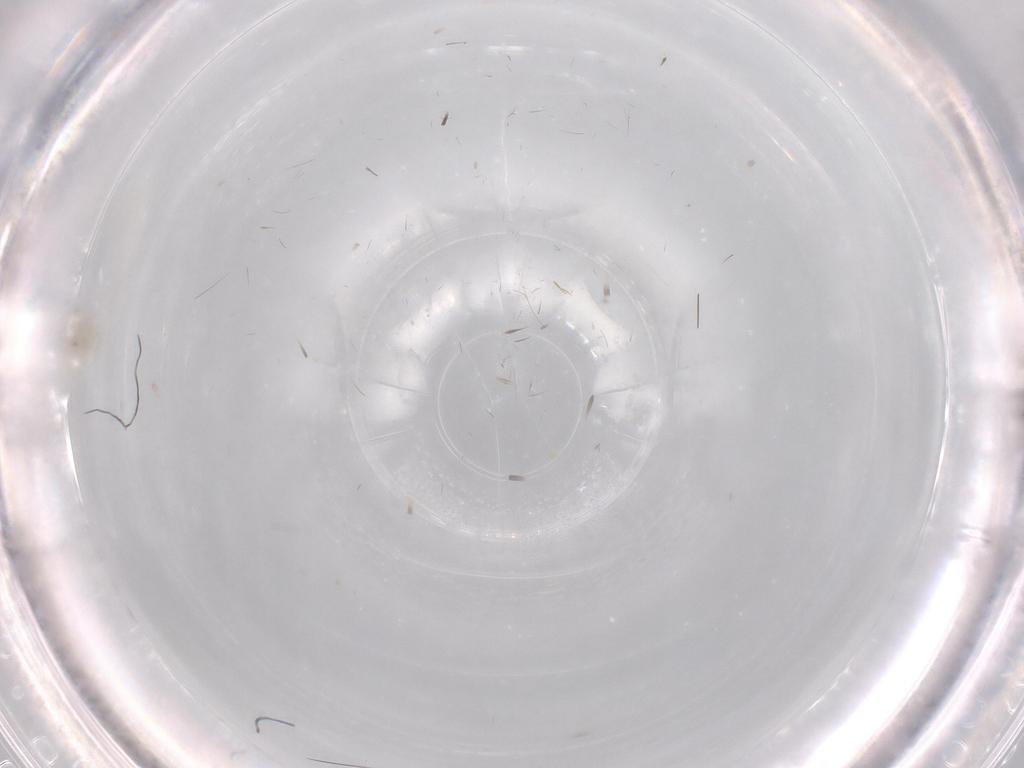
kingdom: Animalia
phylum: Arthropoda
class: Insecta
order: Hemiptera
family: Aleyrodidae
